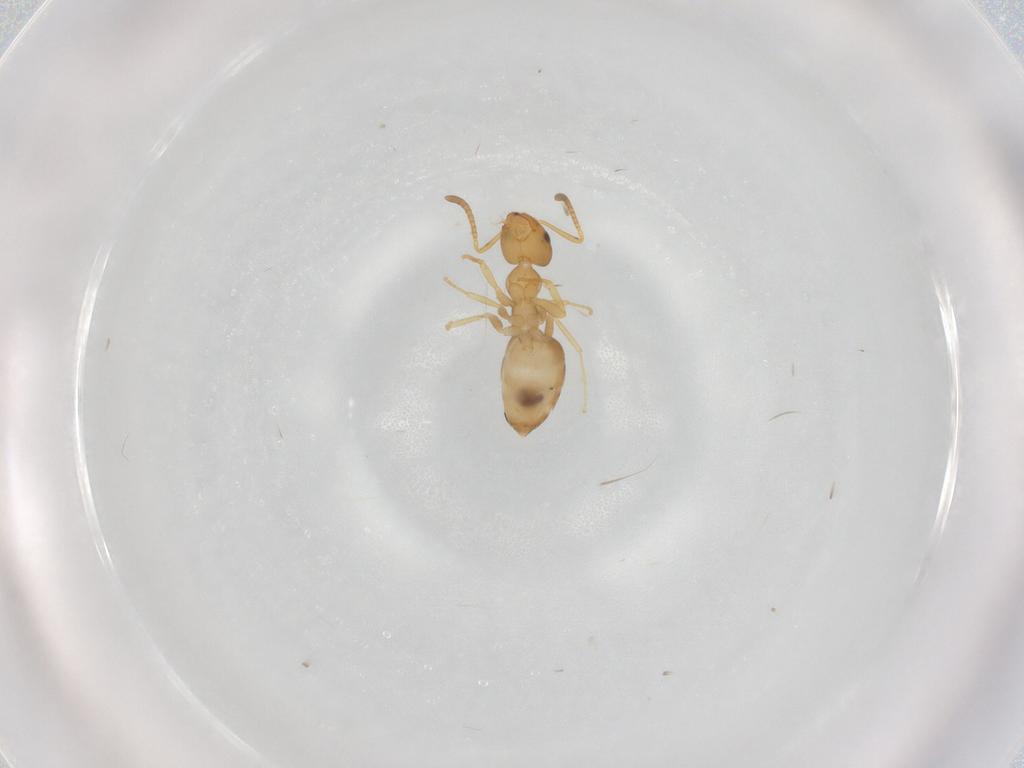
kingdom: Animalia
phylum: Arthropoda
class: Insecta
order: Hymenoptera
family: Formicidae
